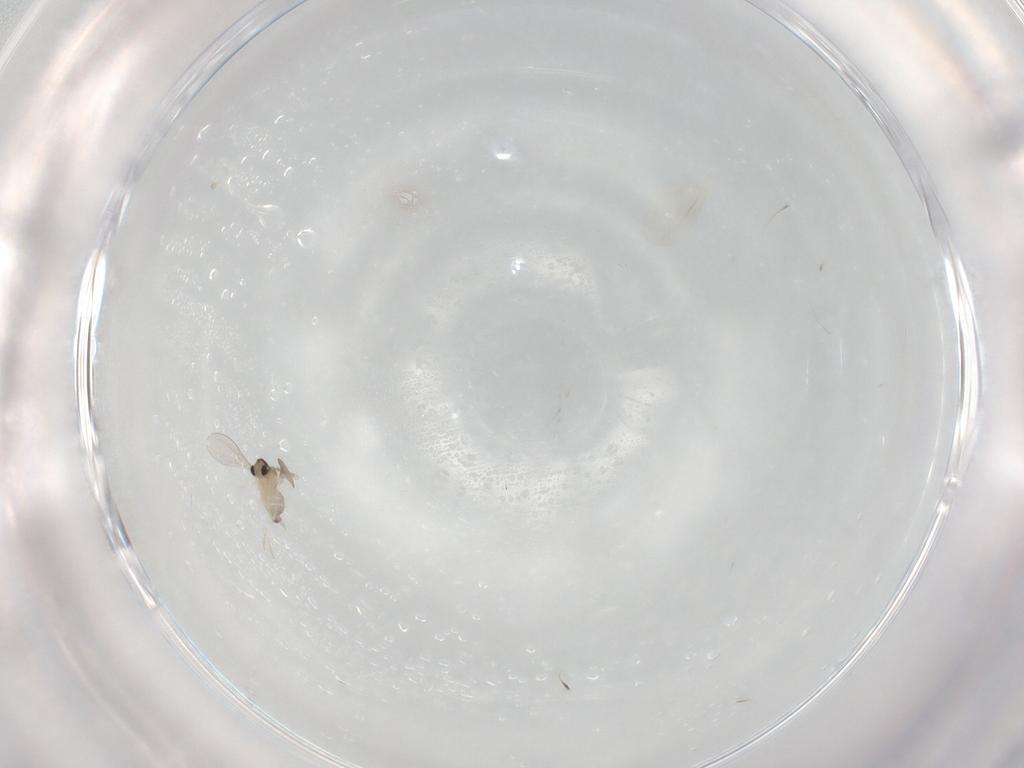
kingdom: Animalia
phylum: Arthropoda
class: Insecta
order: Diptera
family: Cecidomyiidae
